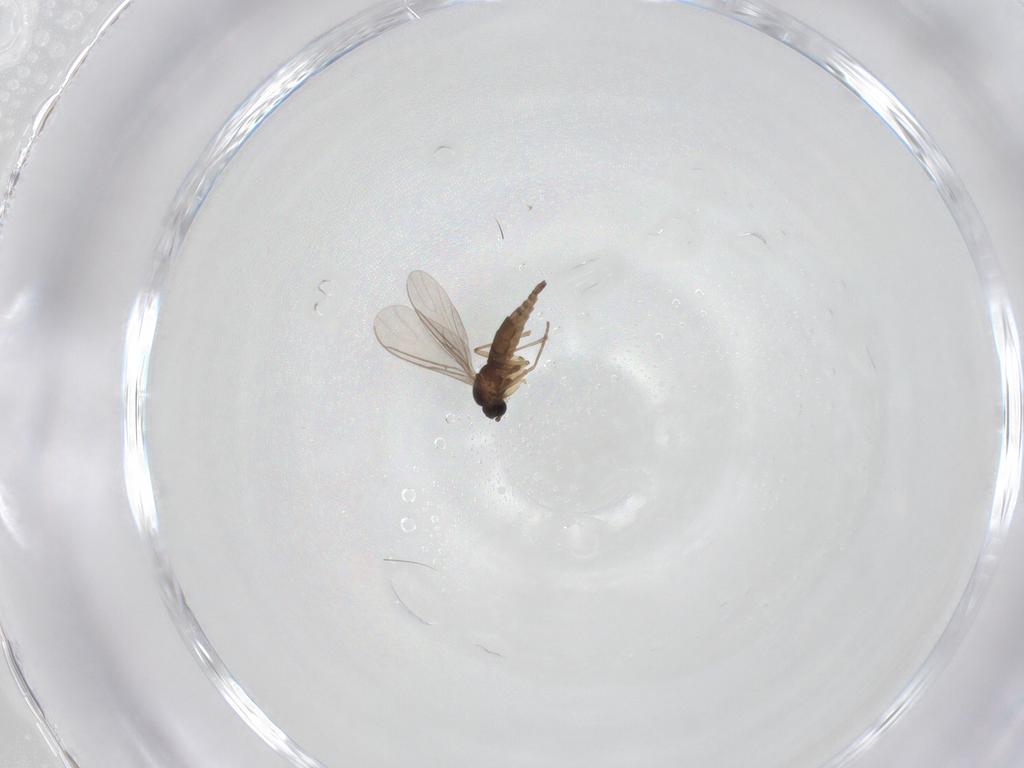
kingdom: Animalia
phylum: Arthropoda
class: Insecta
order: Diptera
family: Sciaridae
